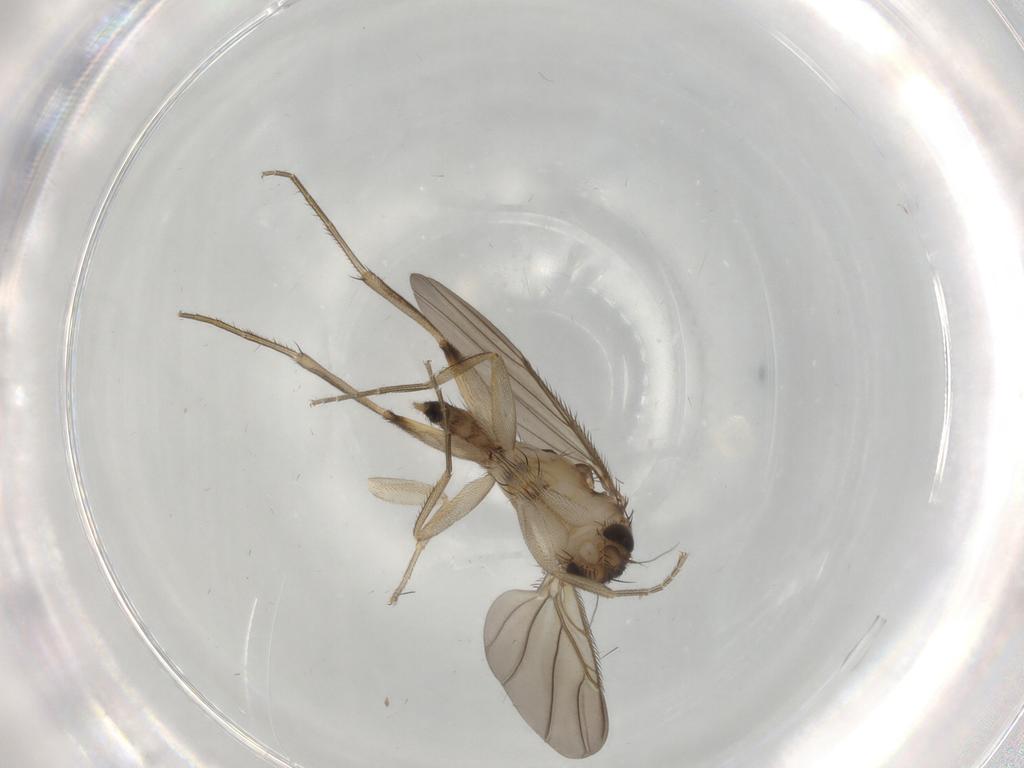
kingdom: Animalia
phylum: Arthropoda
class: Insecta
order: Diptera
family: Phoridae
